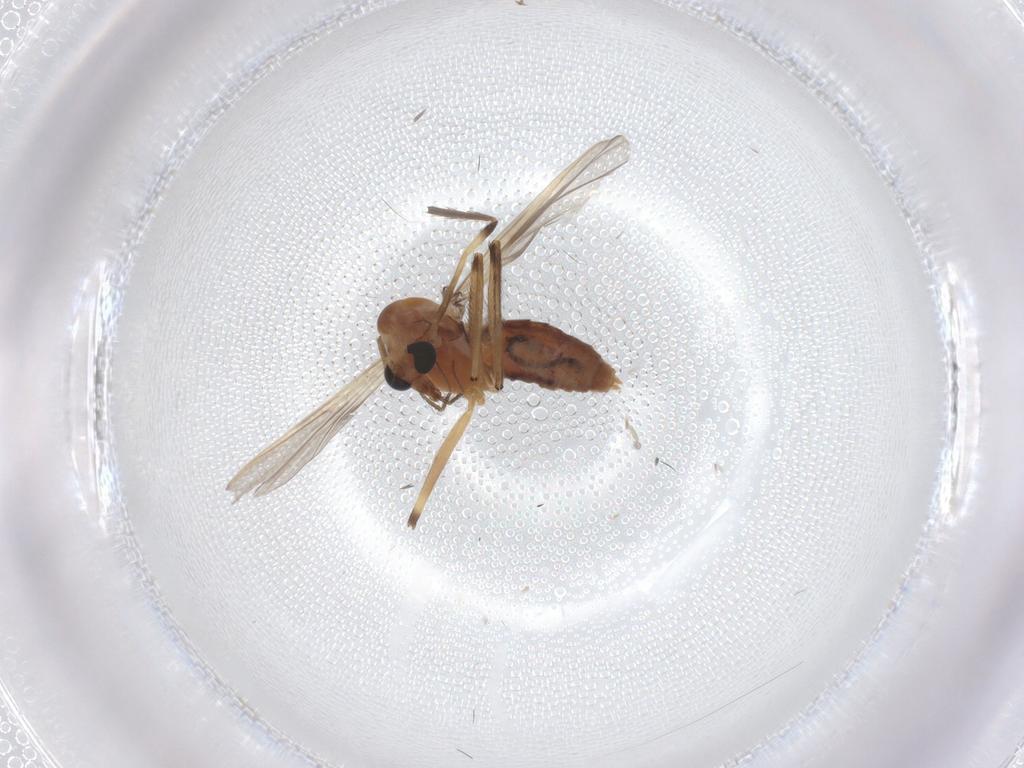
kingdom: Animalia
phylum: Arthropoda
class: Insecta
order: Diptera
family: Chironomidae
